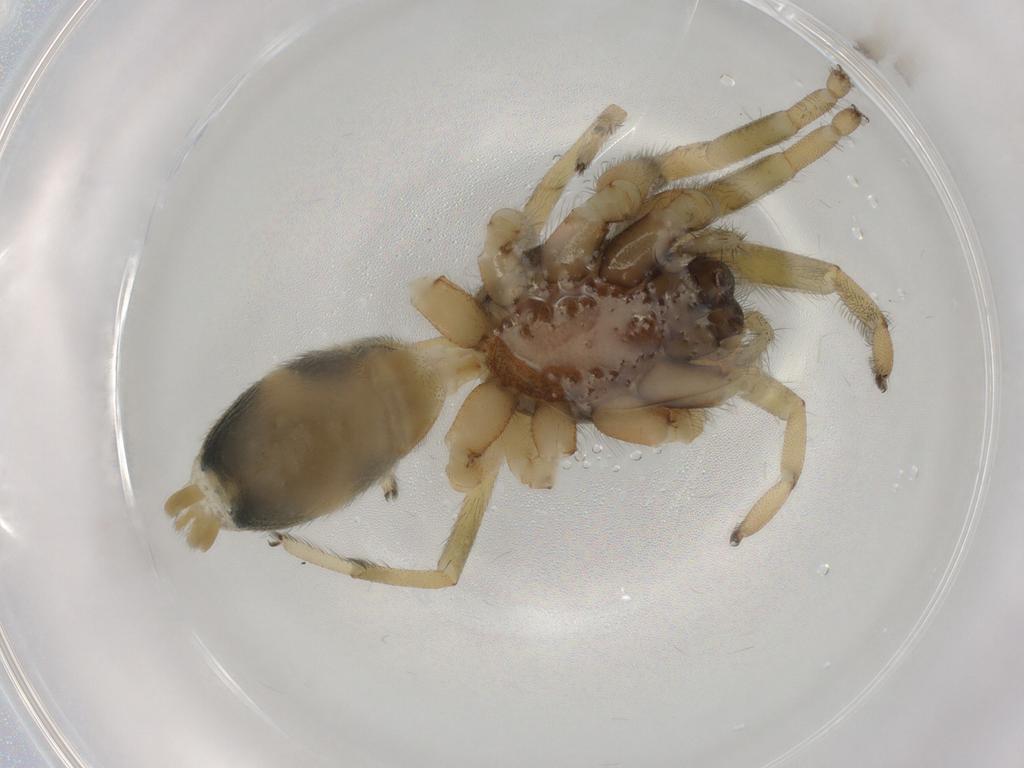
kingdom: Animalia
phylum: Arthropoda
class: Arachnida
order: Araneae
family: Lamponidae
